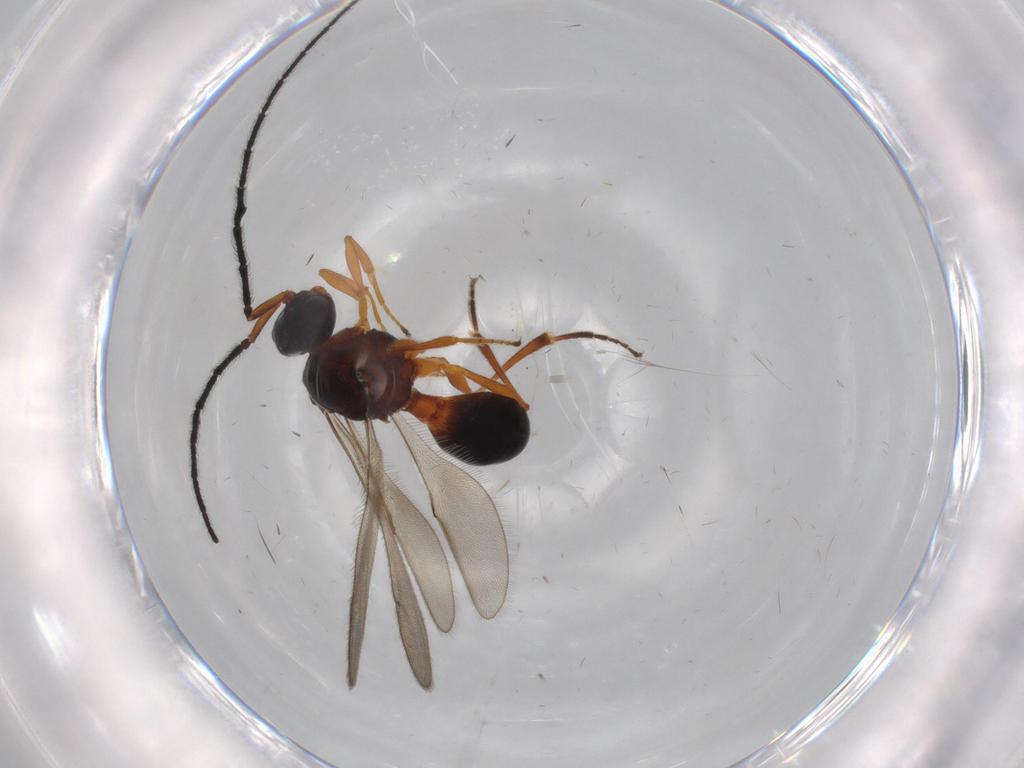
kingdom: Animalia
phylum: Arthropoda
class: Insecta
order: Hymenoptera
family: Scelionidae
